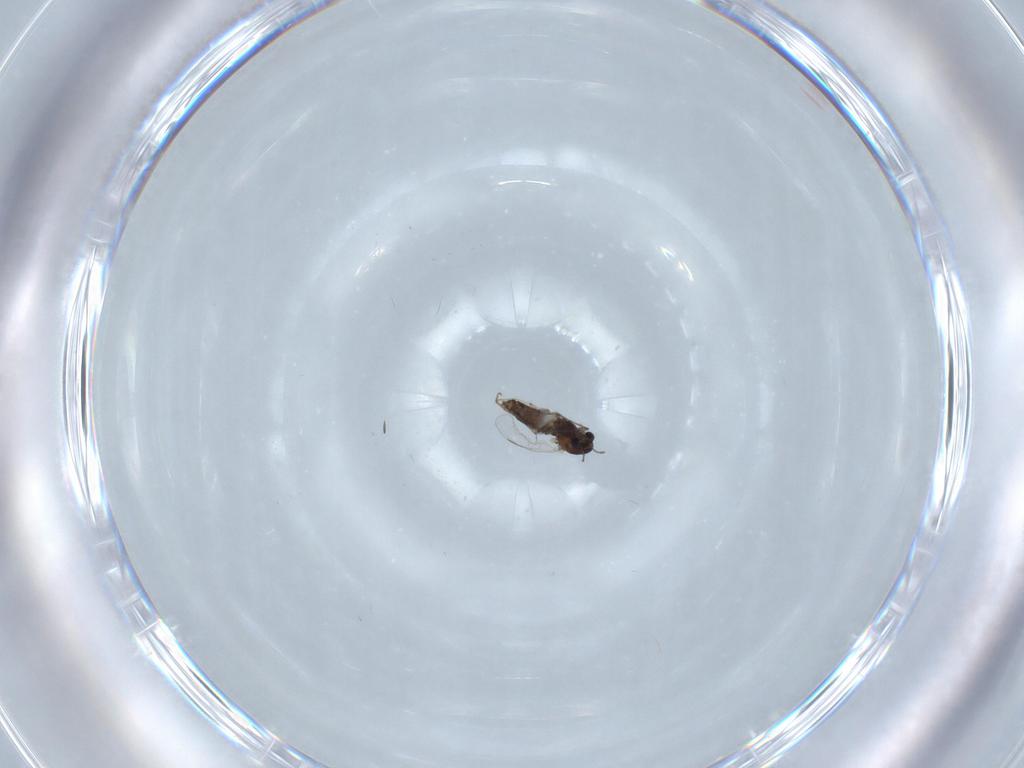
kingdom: Animalia
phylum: Arthropoda
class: Insecta
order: Diptera
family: Chironomidae
